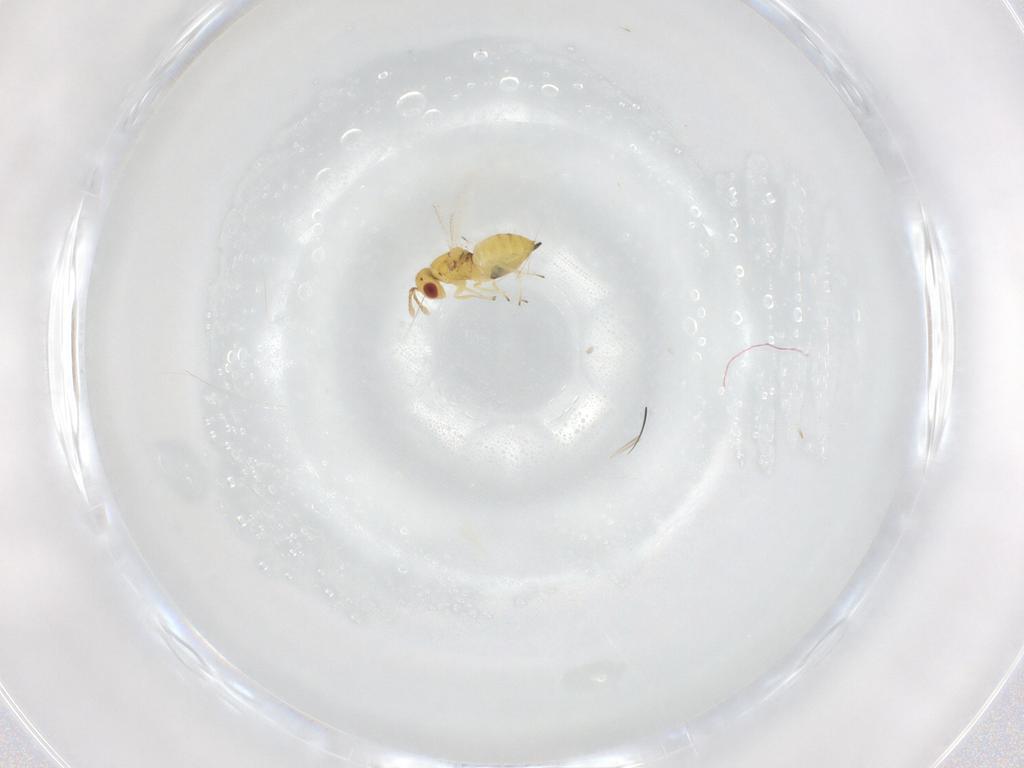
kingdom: Animalia
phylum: Arthropoda
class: Insecta
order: Hymenoptera
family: Eulophidae
